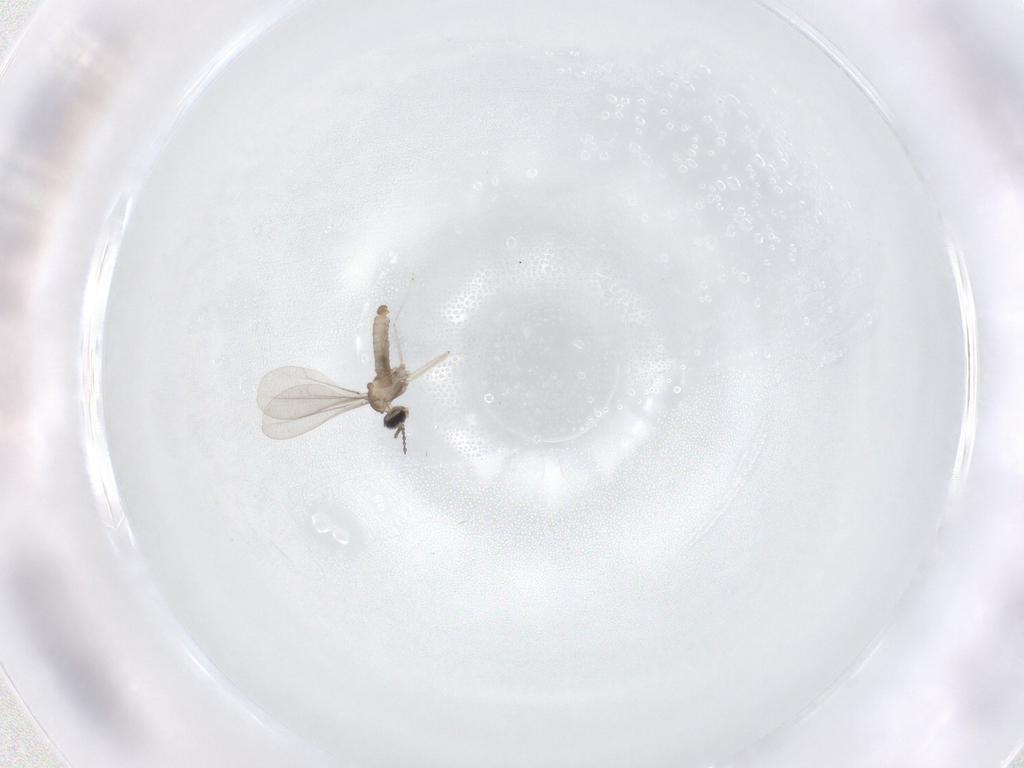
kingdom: Animalia
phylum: Arthropoda
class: Insecta
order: Diptera
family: Cecidomyiidae
